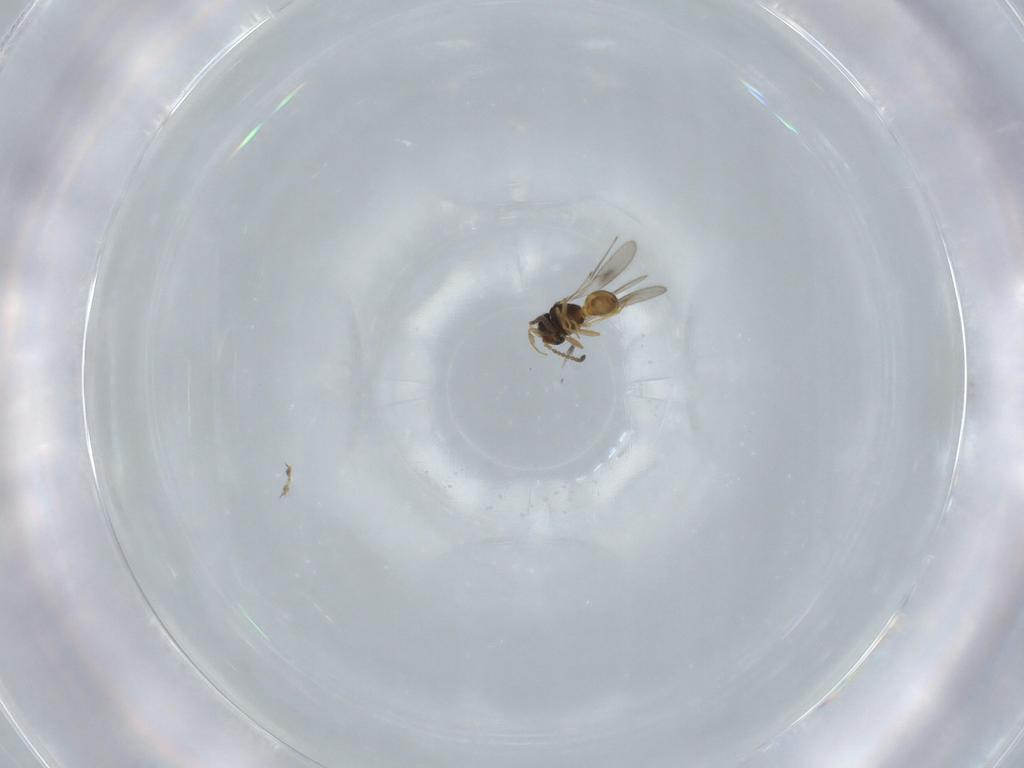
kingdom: Animalia
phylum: Arthropoda
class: Insecta
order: Hymenoptera
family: Scelionidae
